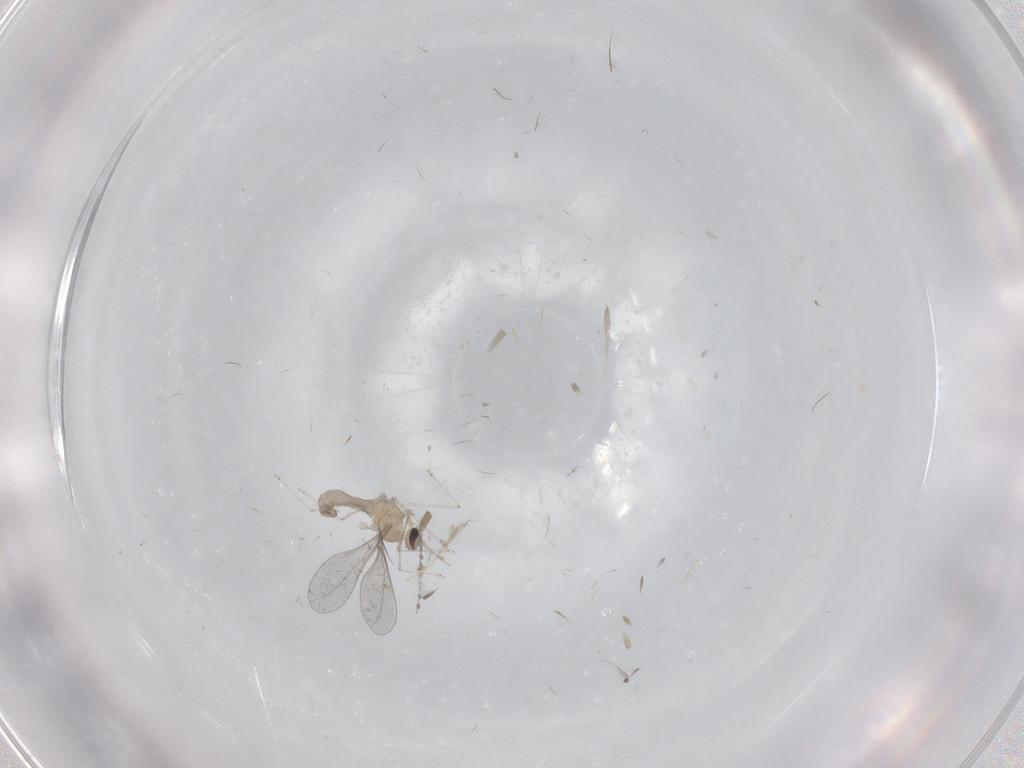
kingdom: Animalia
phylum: Arthropoda
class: Insecta
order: Diptera
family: Cecidomyiidae
